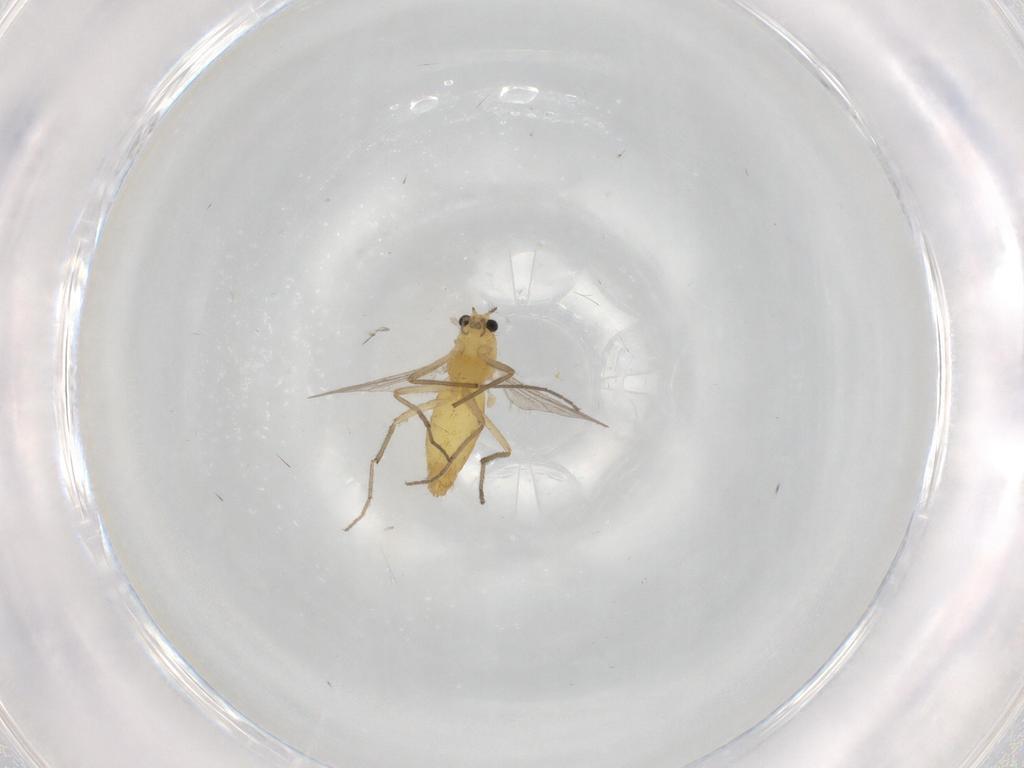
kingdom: Animalia
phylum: Arthropoda
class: Insecta
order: Diptera
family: Chironomidae
